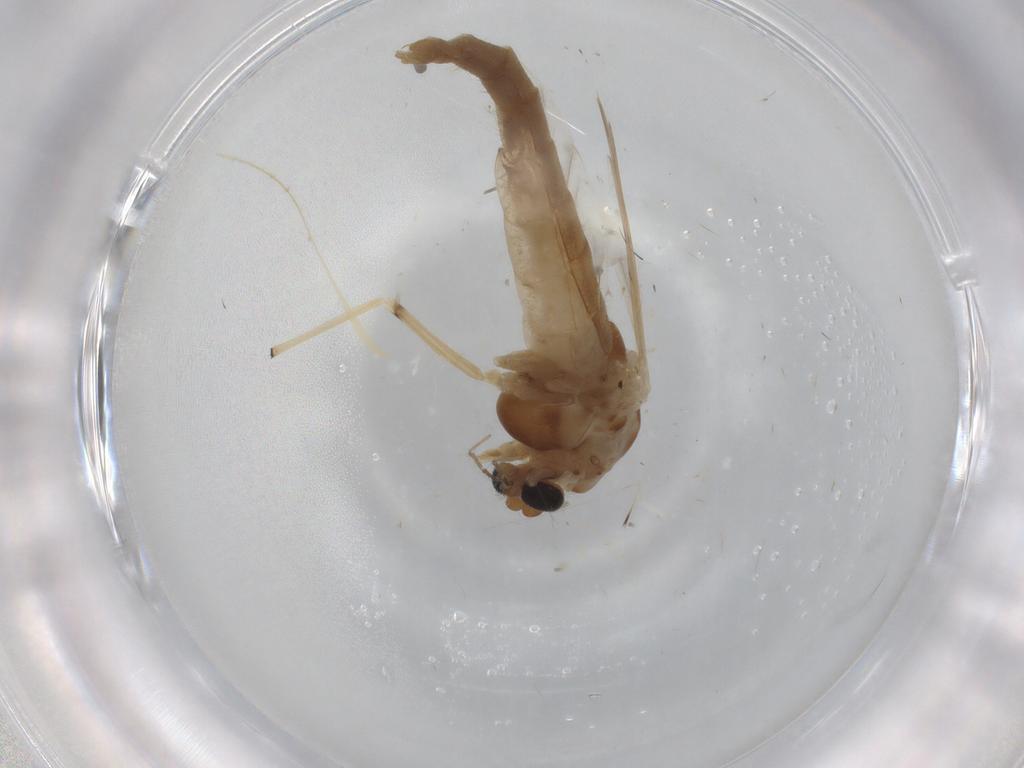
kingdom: Animalia
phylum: Arthropoda
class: Insecta
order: Diptera
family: Chironomidae
